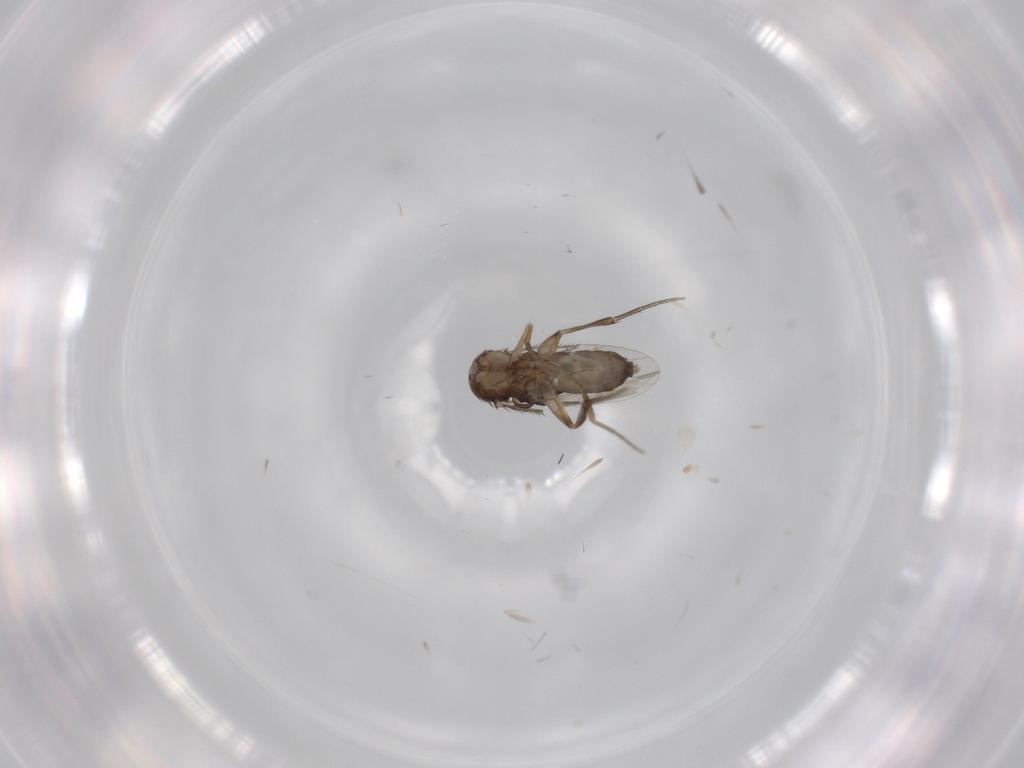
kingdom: Animalia
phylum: Arthropoda
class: Insecta
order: Diptera
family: Phoridae
